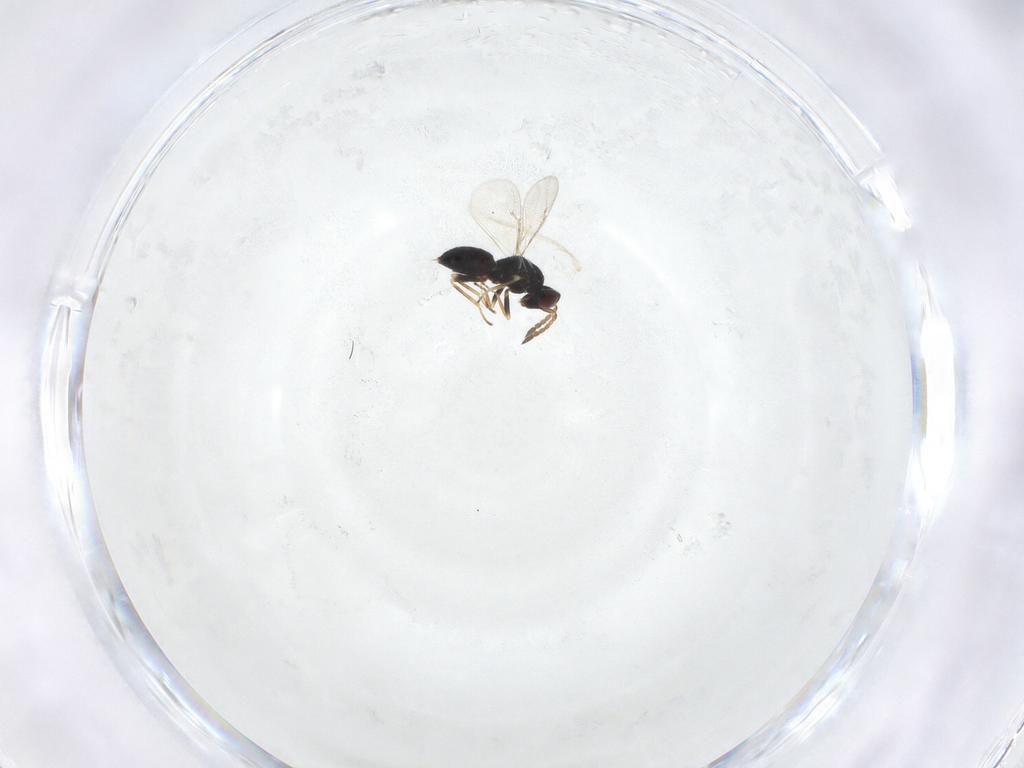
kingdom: Animalia
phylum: Arthropoda
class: Insecta
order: Hymenoptera
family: Eulophidae
